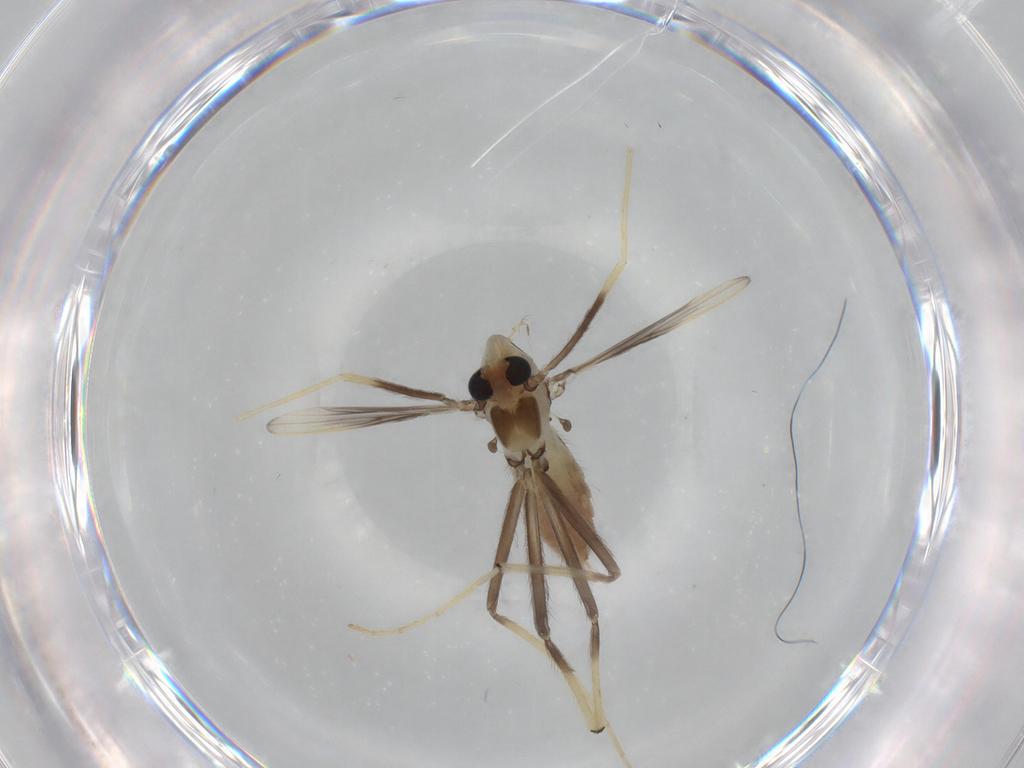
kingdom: Animalia
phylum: Arthropoda
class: Insecta
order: Diptera
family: Chironomidae
